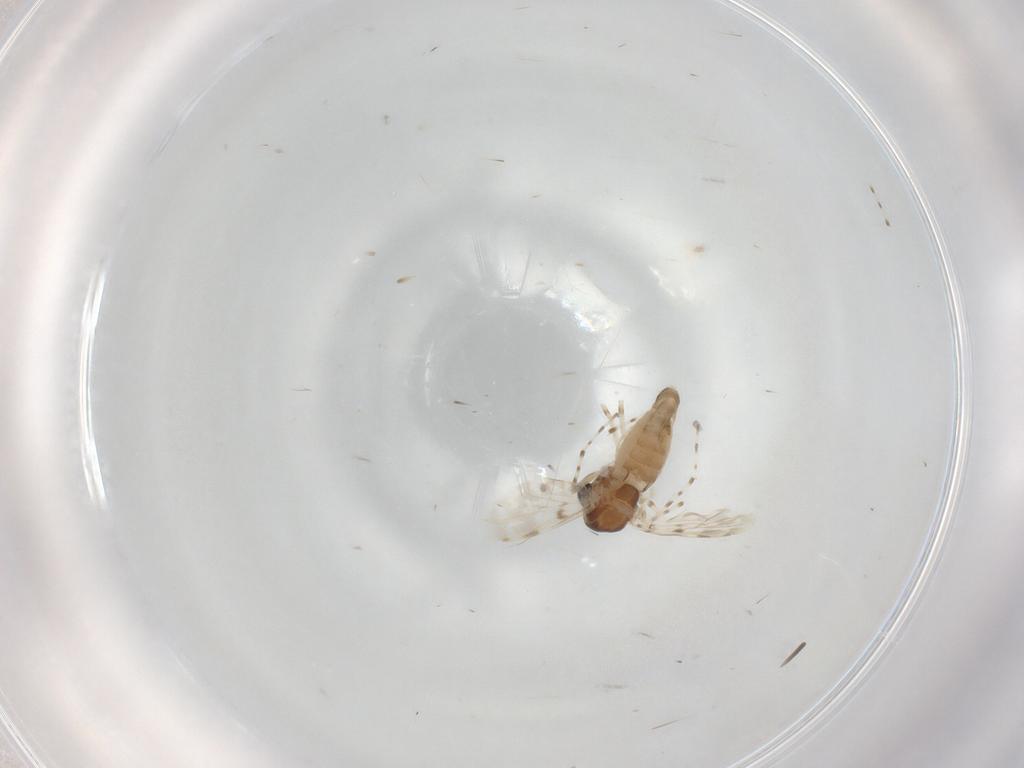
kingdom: Animalia
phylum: Arthropoda
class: Insecta
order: Diptera
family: Chironomidae
